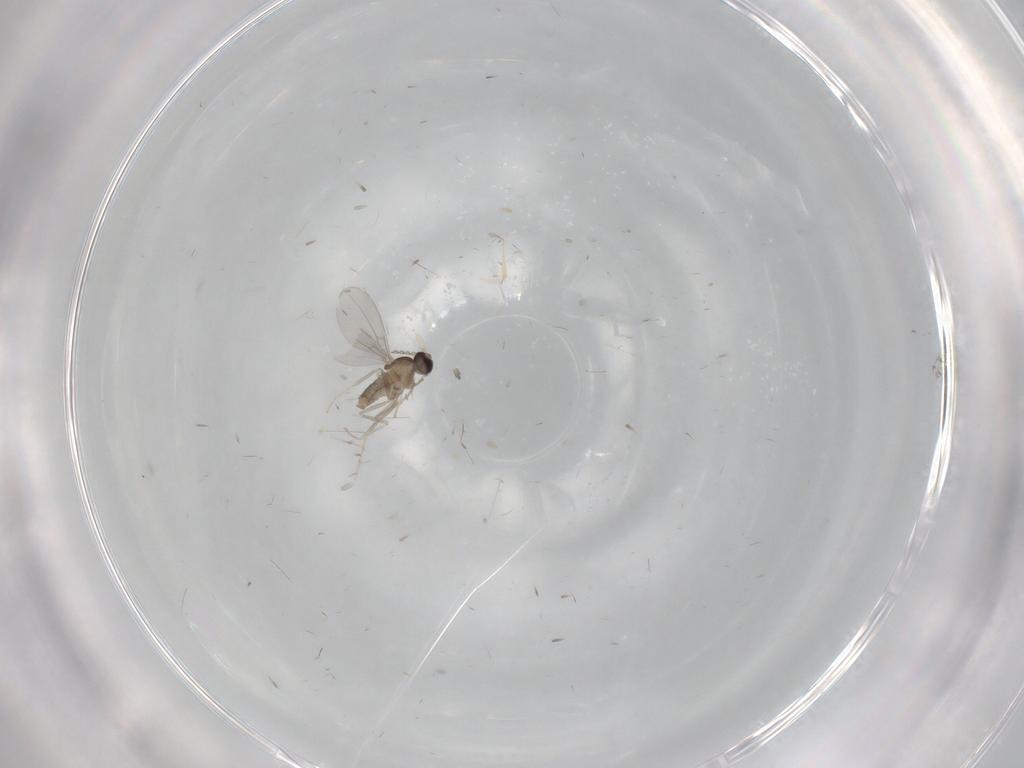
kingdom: Animalia
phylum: Arthropoda
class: Insecta
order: Diptera
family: Cecidomyiidae
